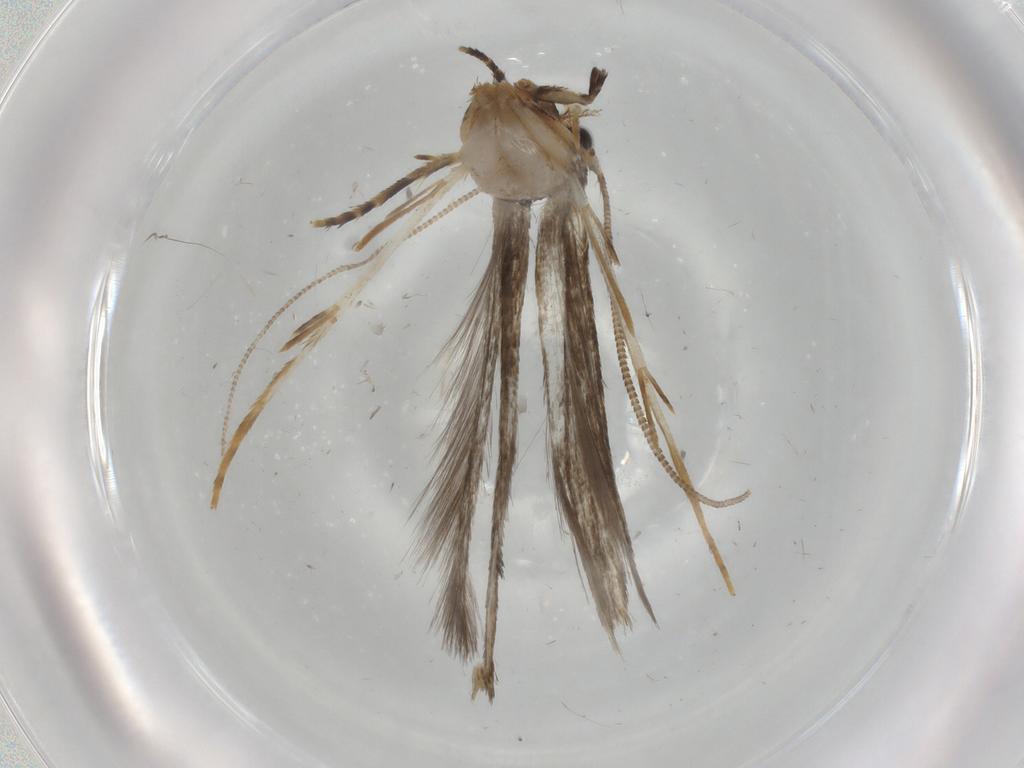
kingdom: Animalia
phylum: Arthropoda
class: Insecta
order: Lepidoptera
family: Tineidae
